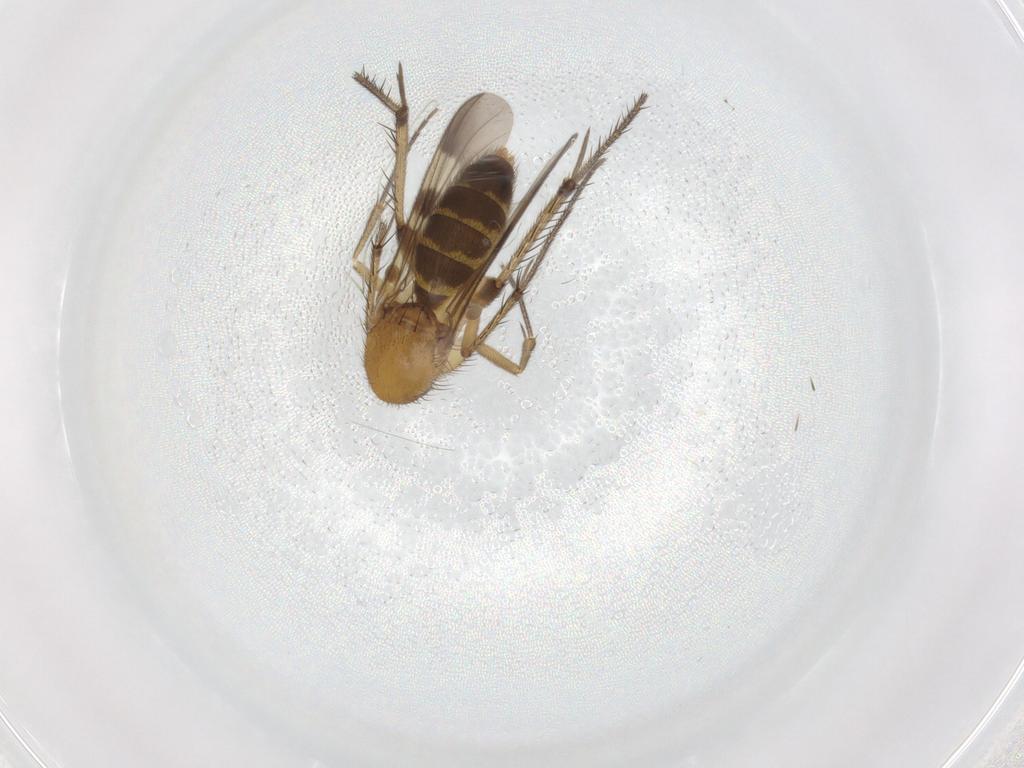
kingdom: Animalia
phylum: Arthropoda
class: Insecta
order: Diptera
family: Mycetophilidae
